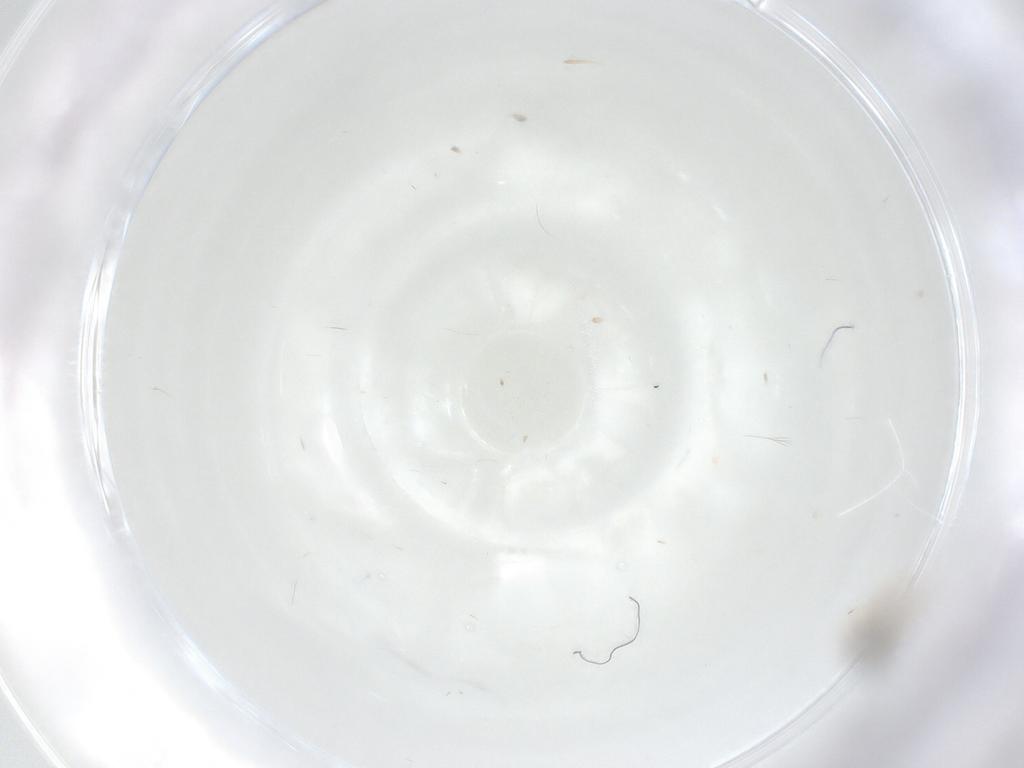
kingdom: Animalia
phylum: Arthropoda
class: Insecta
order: Diptera
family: Cecidomyiidae
